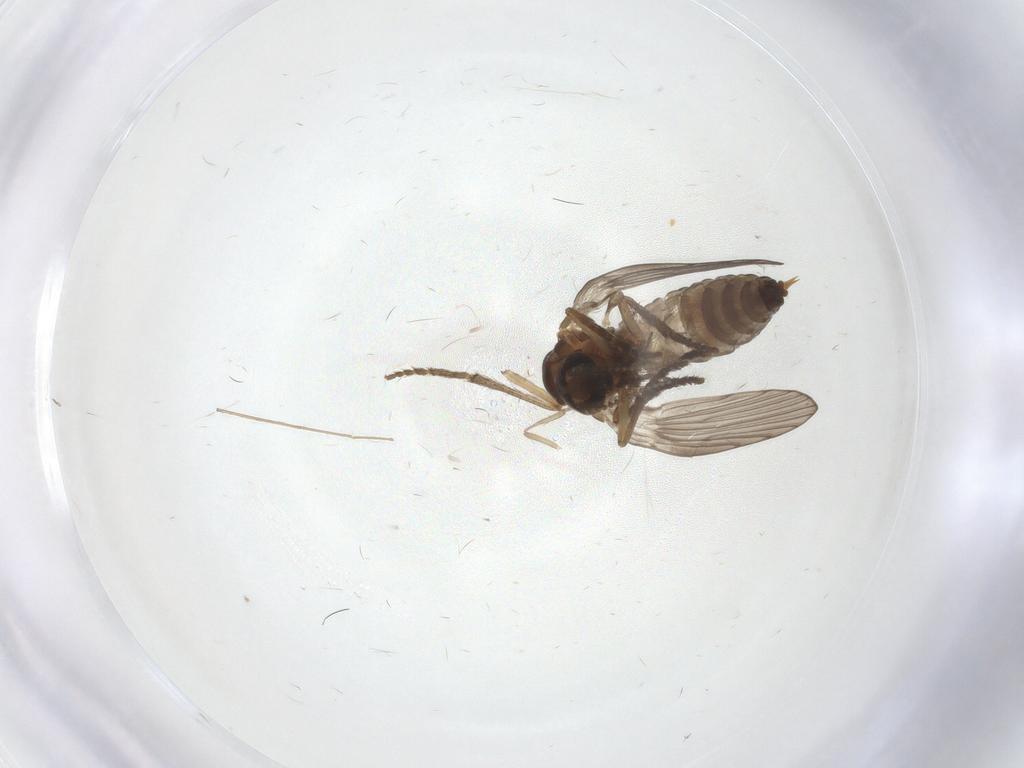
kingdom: Animalia
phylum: Arthropoda
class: Insecta
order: Diptera
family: Psychodidae
